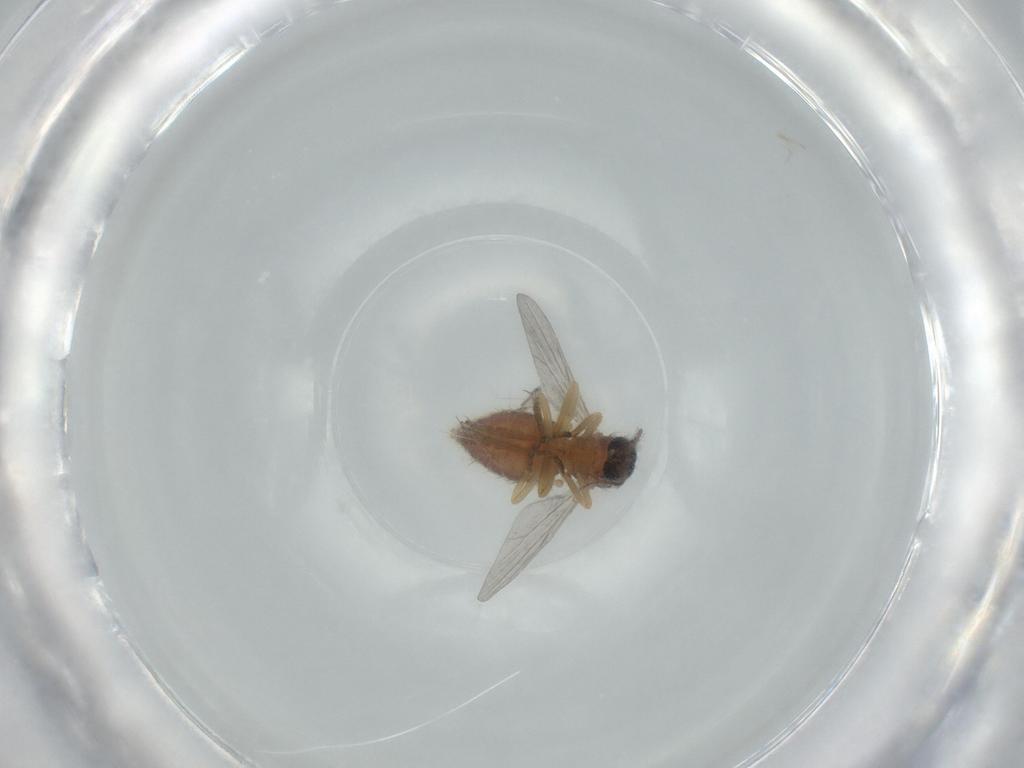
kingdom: Animalia
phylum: Arthropoda
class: Insecta
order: Diptera
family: Ceratopogonidae
